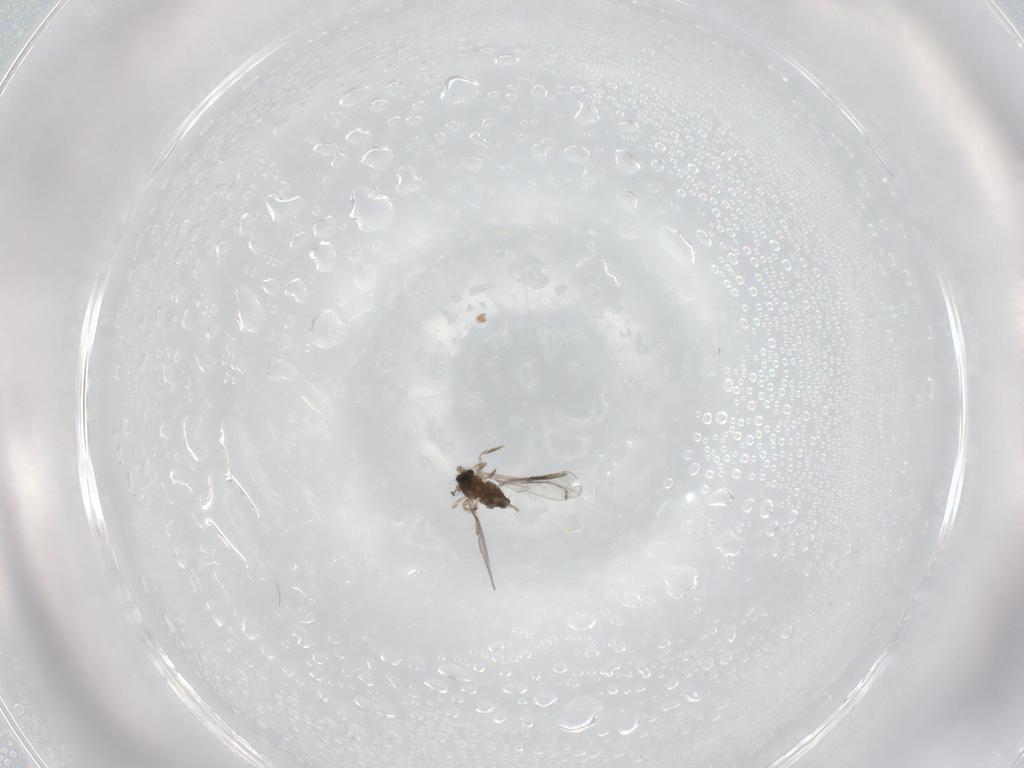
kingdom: Animalia
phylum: Arthropoda
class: Insecta
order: Diptera
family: Cecidomyiidae
